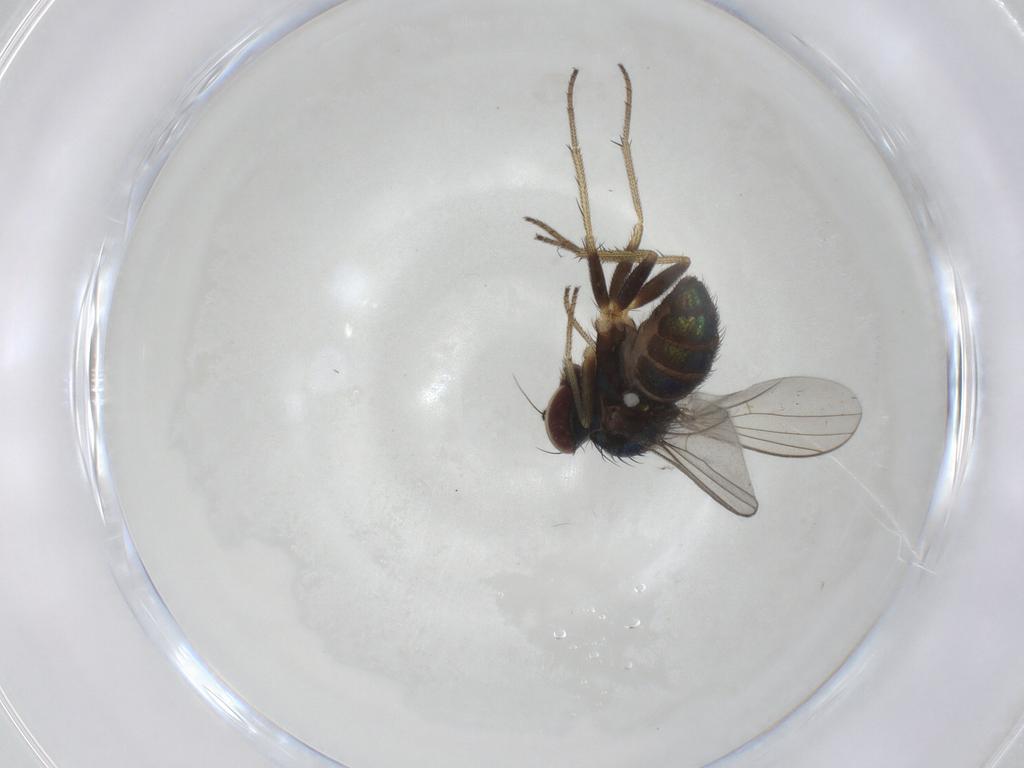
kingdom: Animalia
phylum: Arthropoda
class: Insecta
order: Diptera
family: Dolichopodidae
